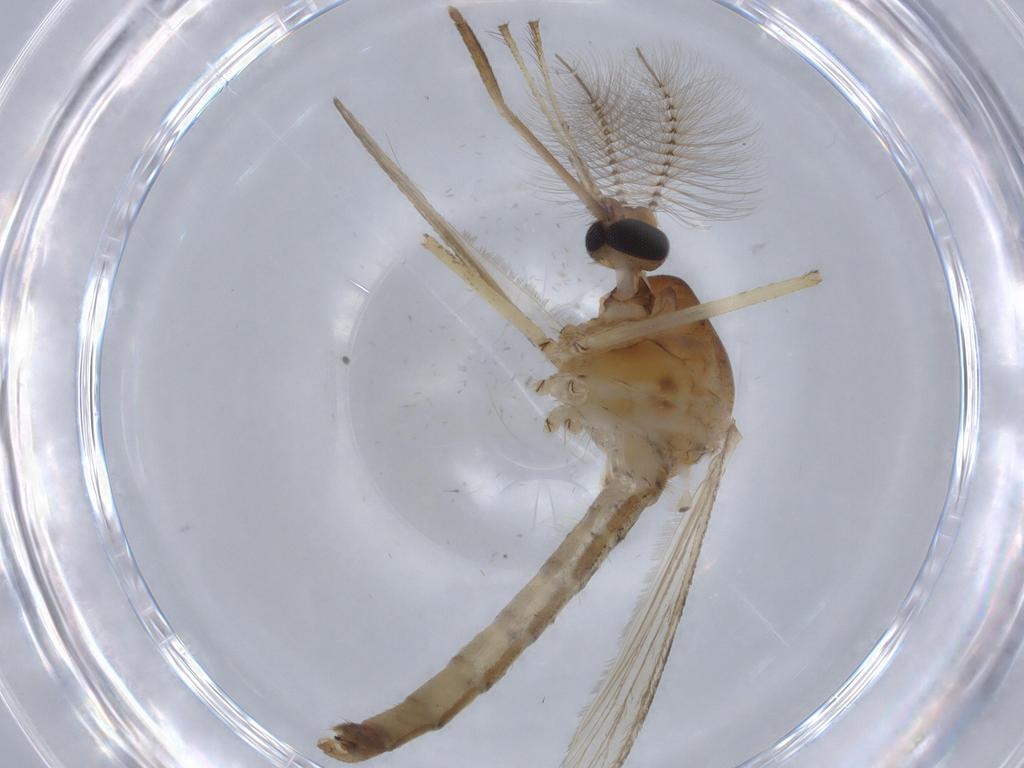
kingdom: Animalia
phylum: Arthropoda
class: Insecta
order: Diptera
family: Ceratopogonidae
